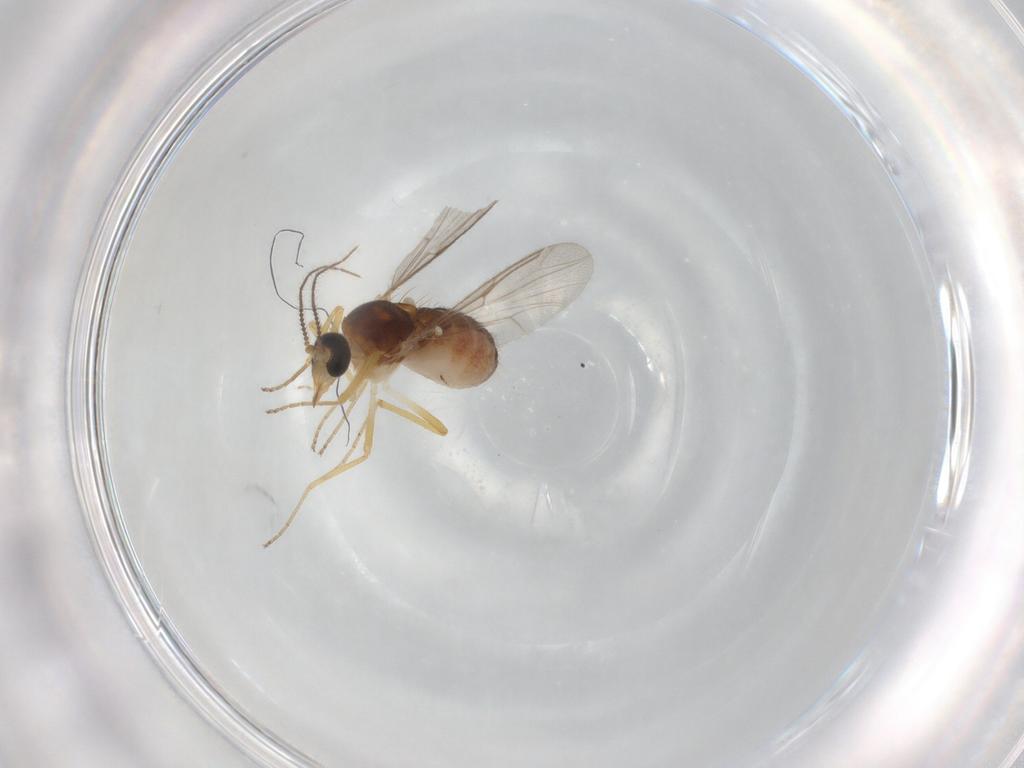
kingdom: Animalia
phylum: Arthropoda
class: Insecta
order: Diptera
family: Ceratopogonidae
